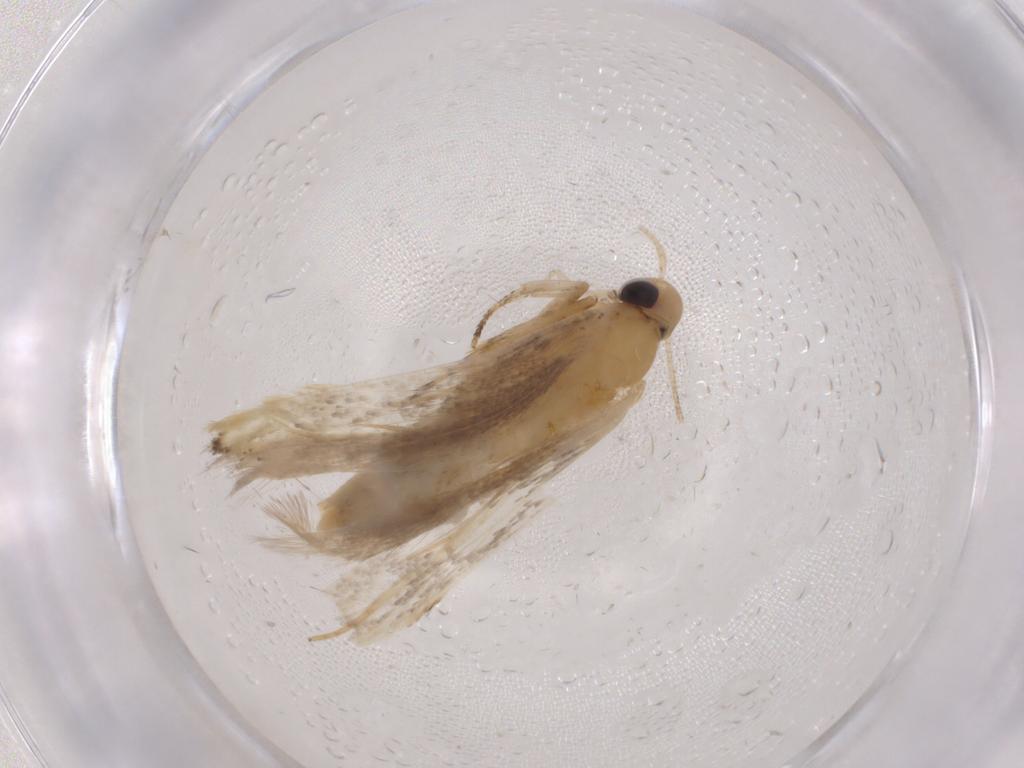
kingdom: Animalia
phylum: Arthropoda
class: Insecta
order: Lepidoptera
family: Autostichidae
